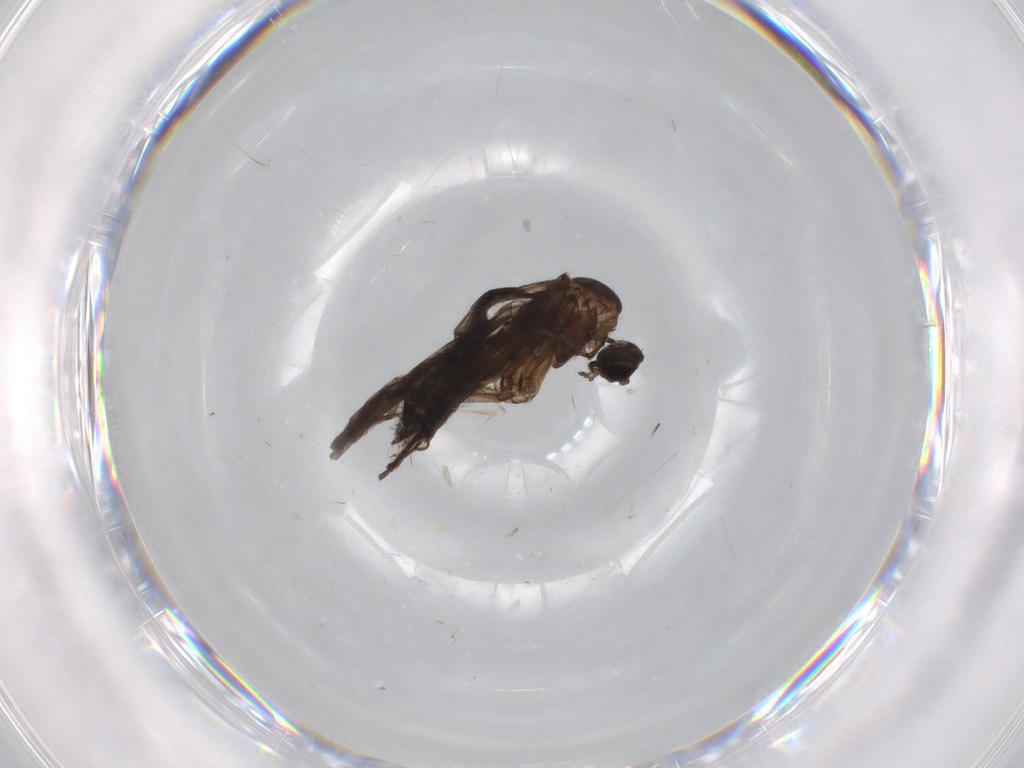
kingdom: Animalia
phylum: Arthropoda
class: Insecta
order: Diptera
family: Sciaridae
